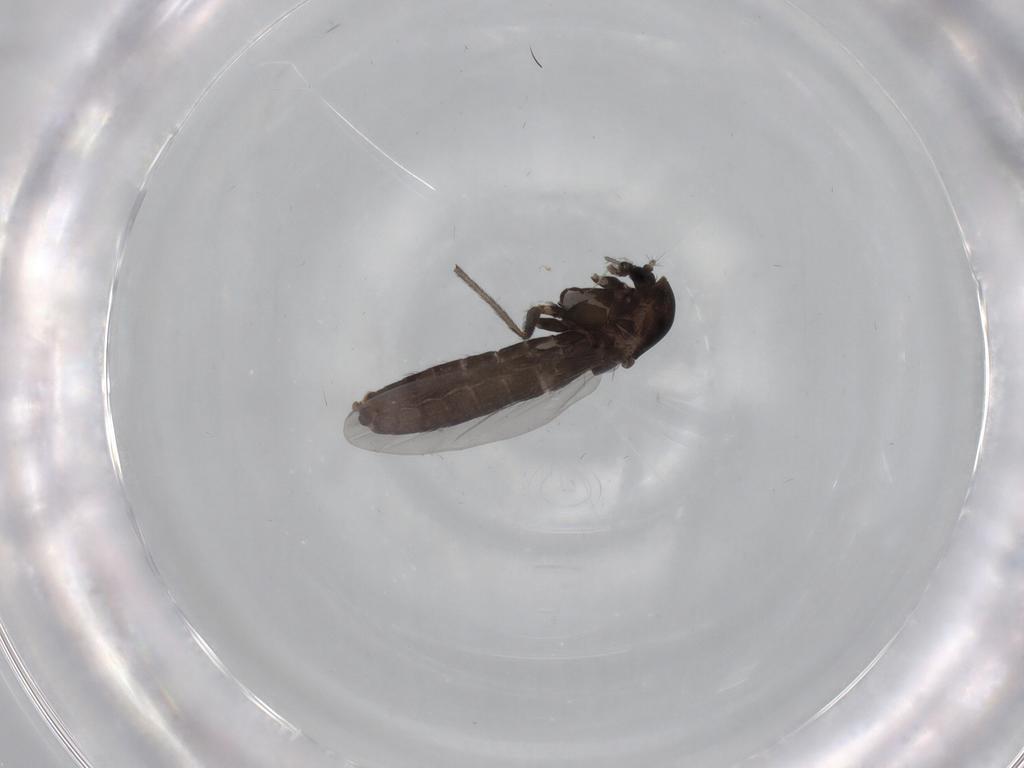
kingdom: Animalia
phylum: Arthropoda
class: Insecta
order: Diptera
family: Chironomidae
